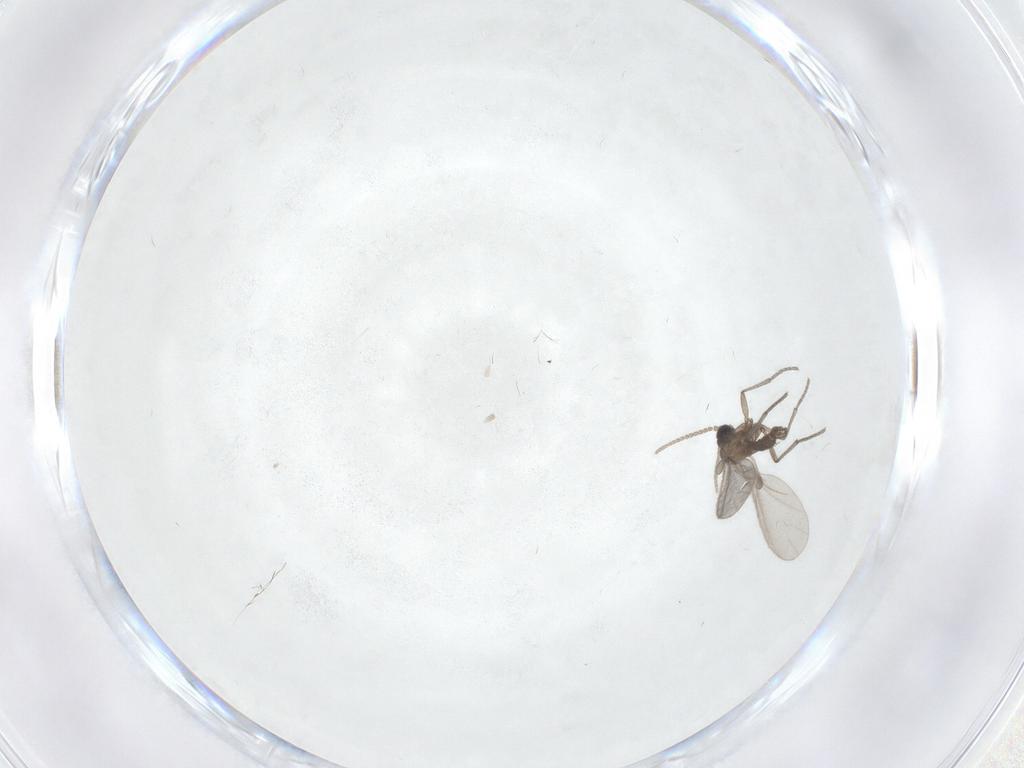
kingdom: Animalia
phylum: Arthropoda
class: Insecta
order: Diptera
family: Sciaridae
